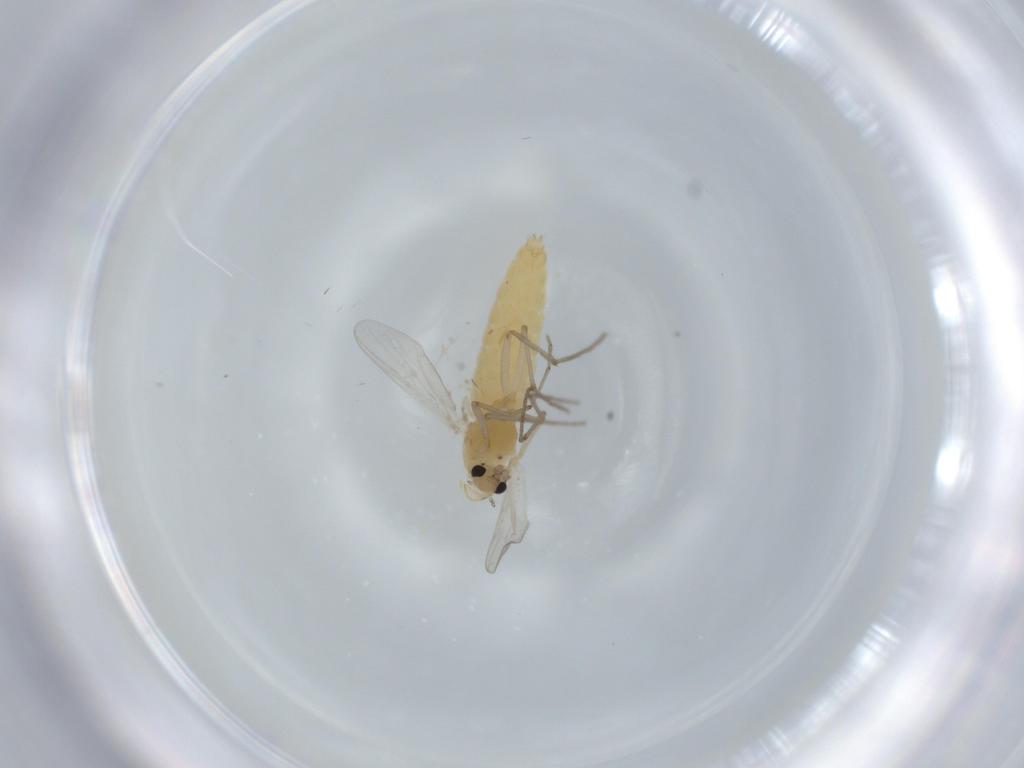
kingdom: Animalia
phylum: Arthropoda
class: Insecta
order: Diptera
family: Chironomidae
